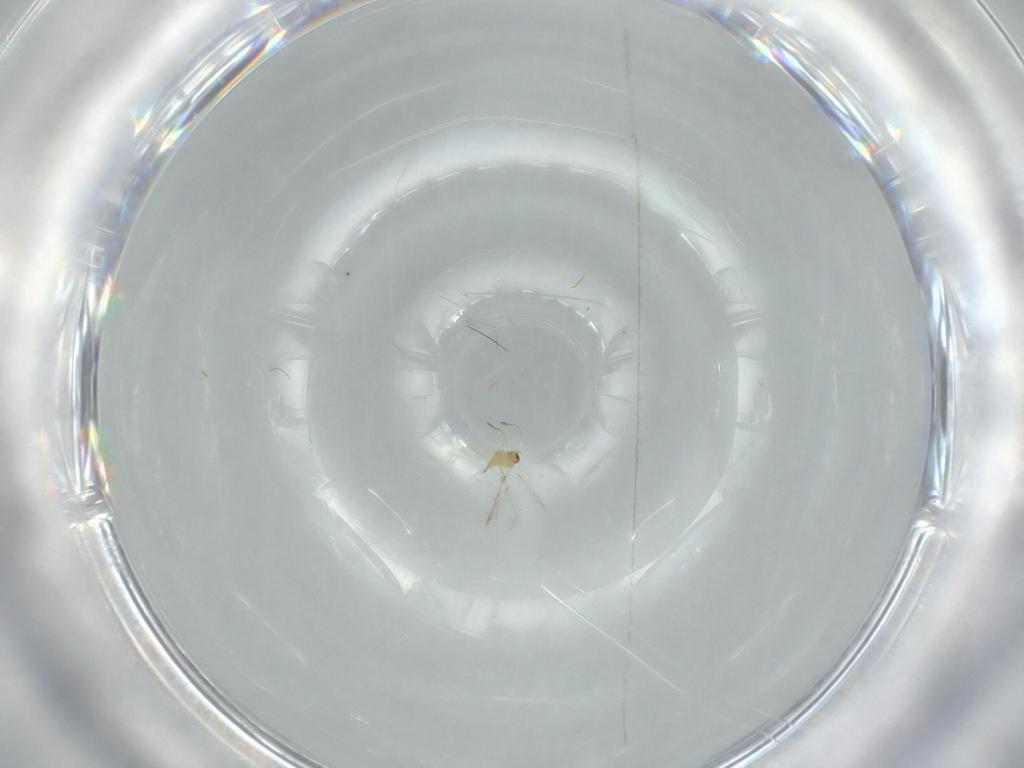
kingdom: Animalia
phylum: Arthropoda
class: Insecta
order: Hymenoptera
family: Mymaridae
